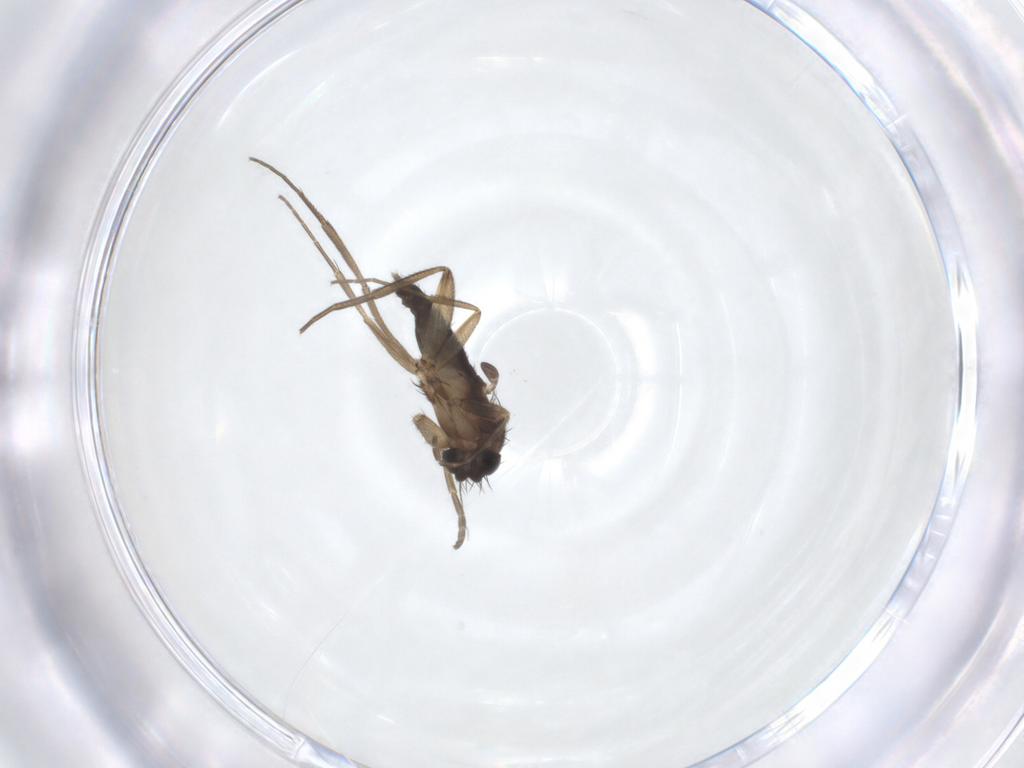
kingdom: Animalia
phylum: Arthropoda
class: Insecta
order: Diptera
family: Phoridae
